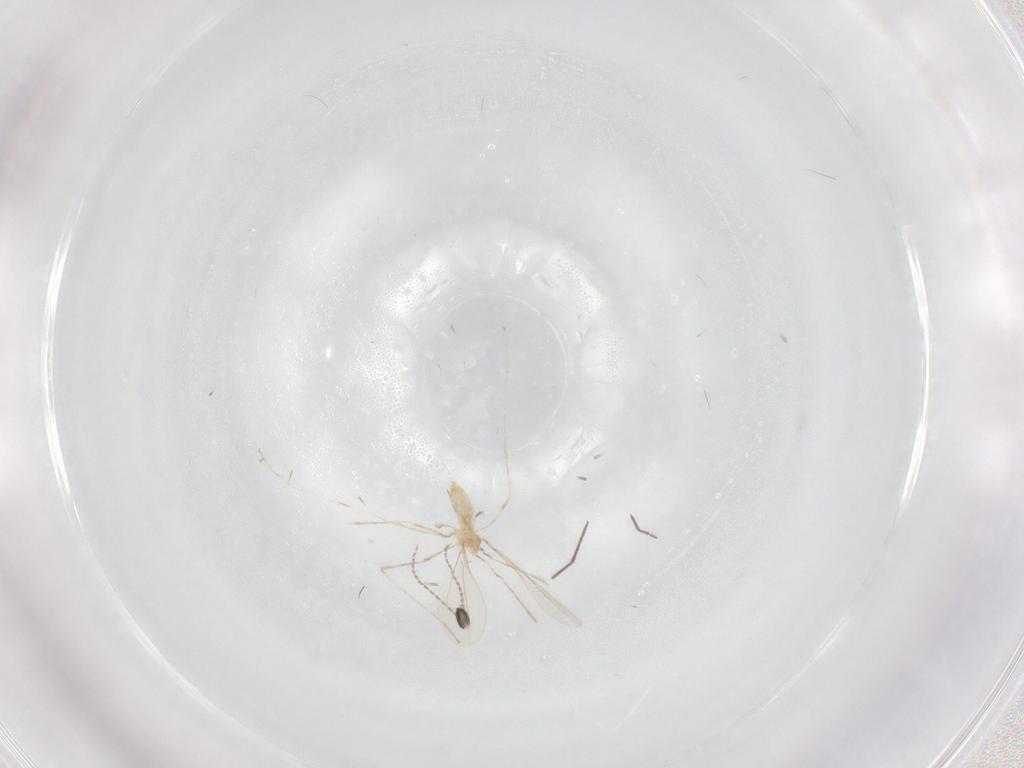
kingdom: Animalia
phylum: Arthropoda
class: Insecta
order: Diptera
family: Chironomidae
